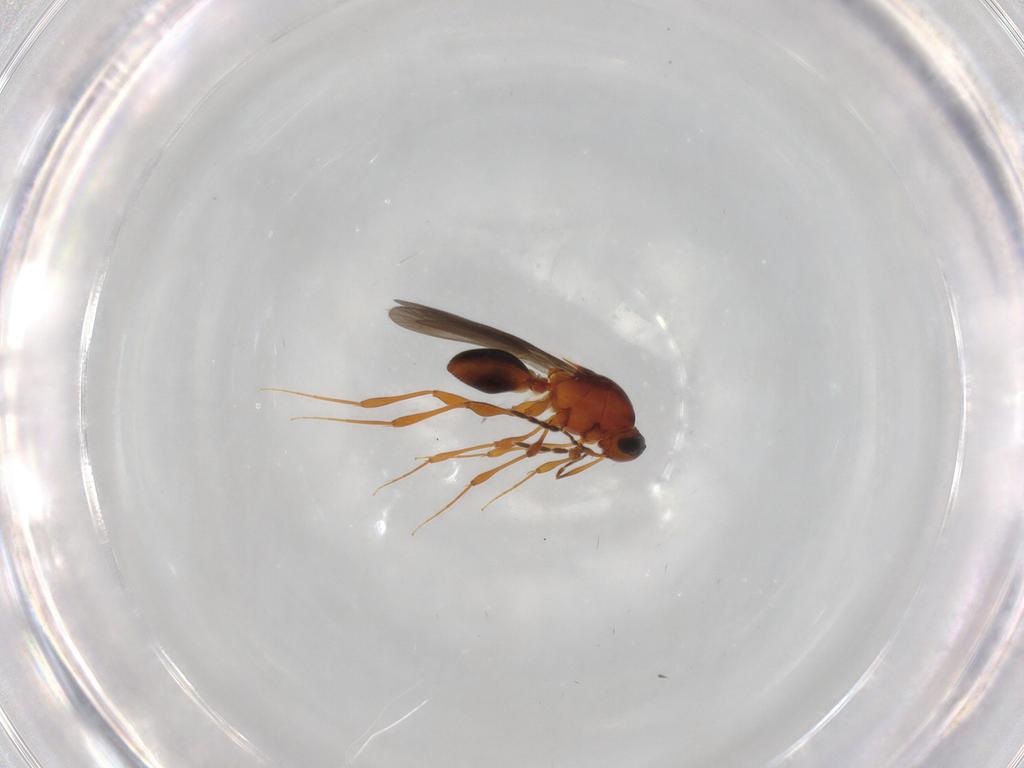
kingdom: Animalia
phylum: Arthropoda
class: Insecta
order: Hymenoptera
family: Platygastridae
